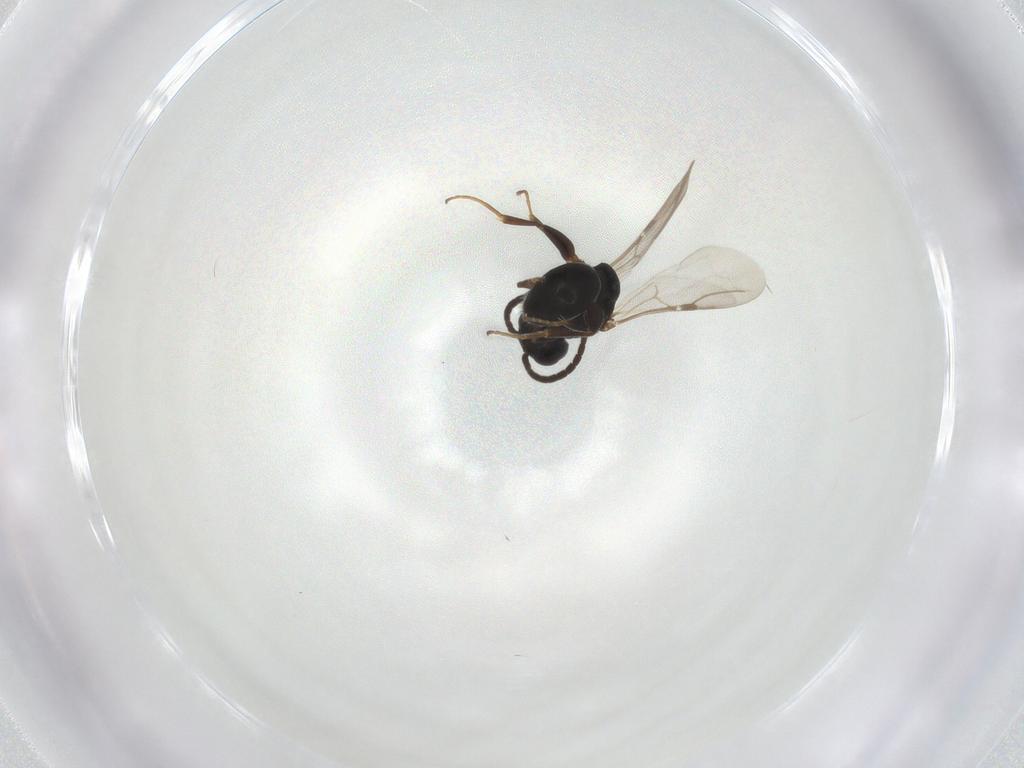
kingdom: Animalia
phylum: Arthropoda
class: Insecta
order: Hymenoptera
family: Bethylidae
